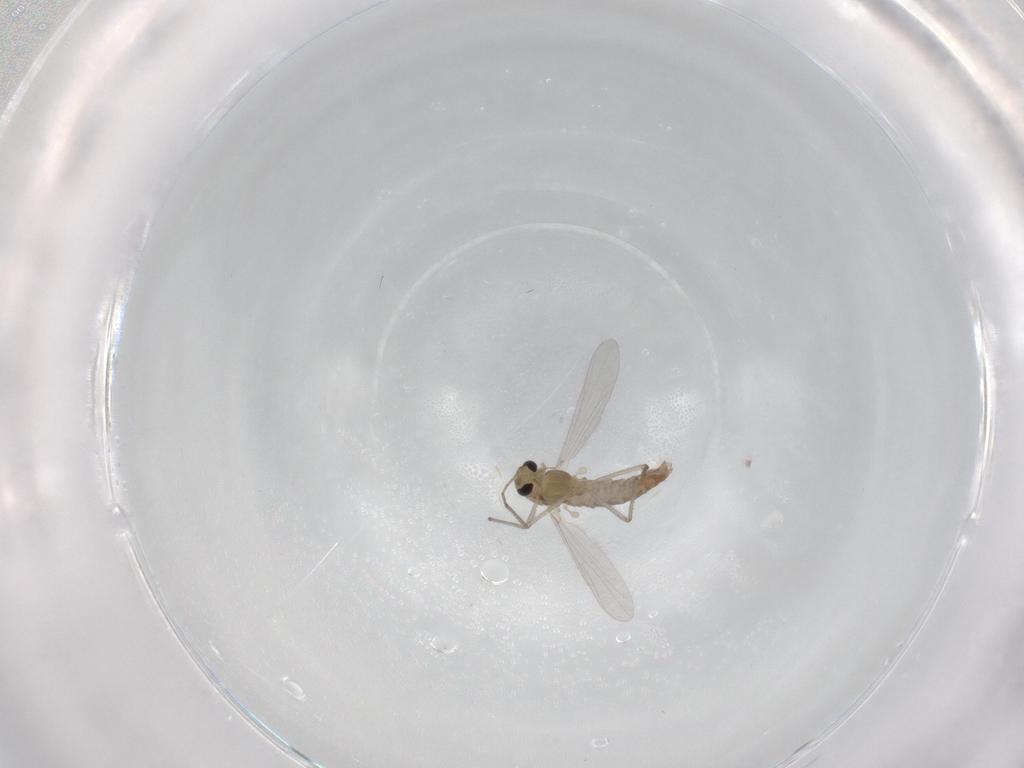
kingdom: Animalia
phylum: Arthropoda
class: Insecta
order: Diptera
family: Chironomidae
